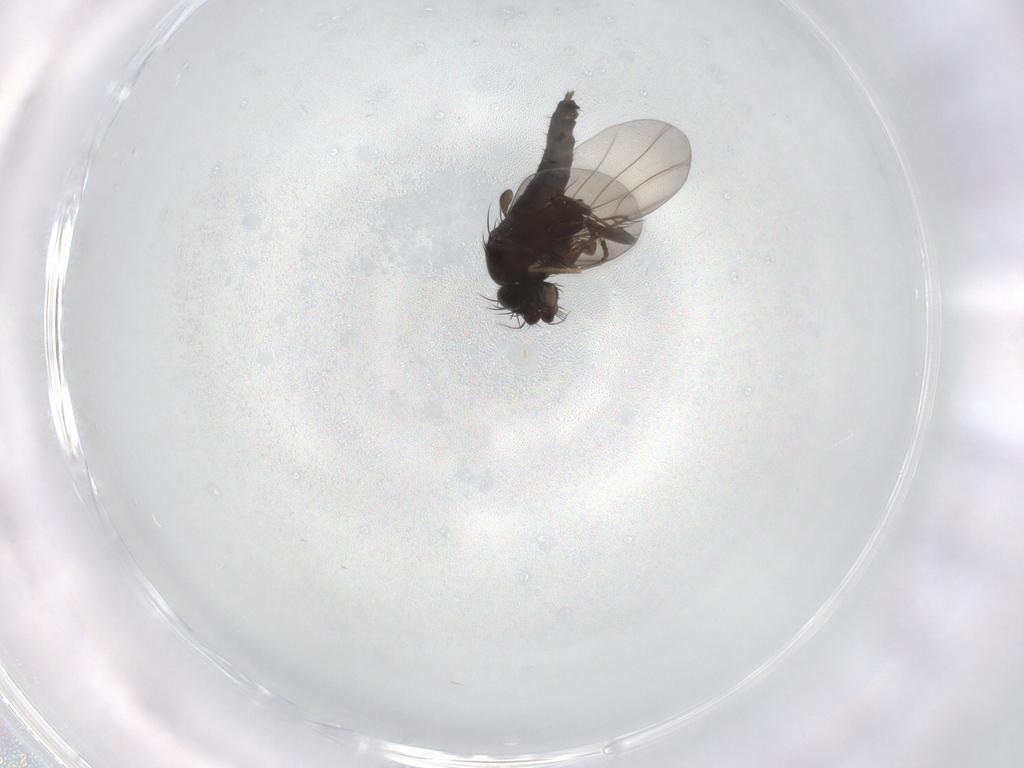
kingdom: Animalia
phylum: Arthropoda
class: Insecta
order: Diptera
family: Phoridae
